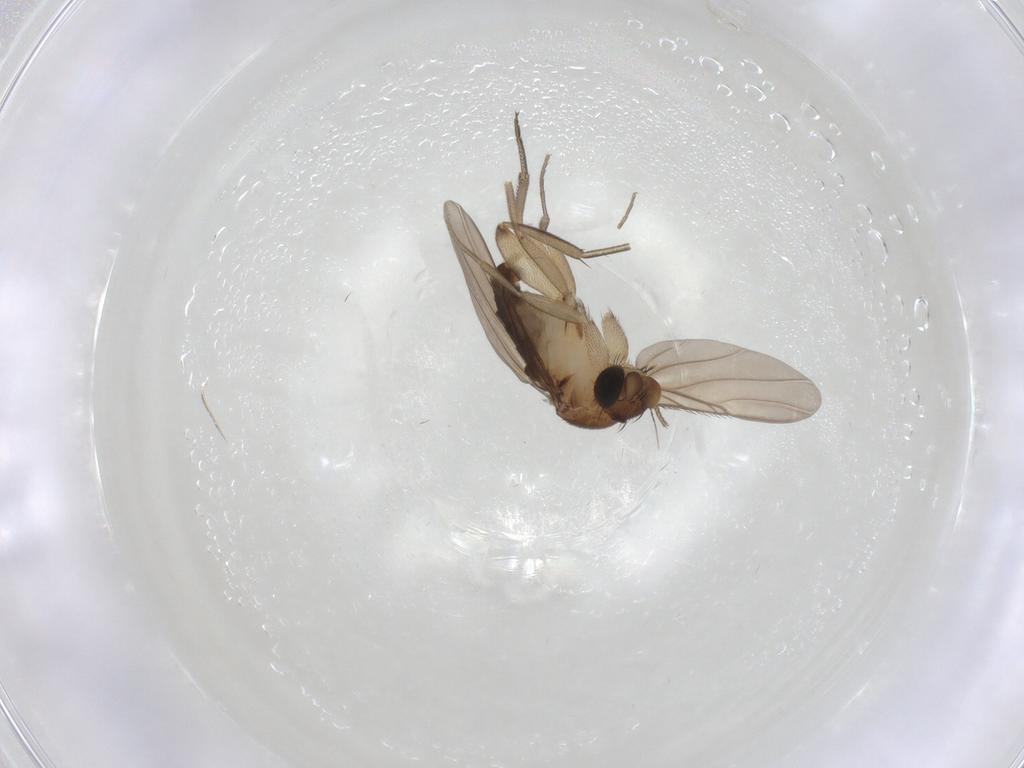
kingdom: Animalia
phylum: Arthropoda
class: Insecta
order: Diptera
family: Phoridae
